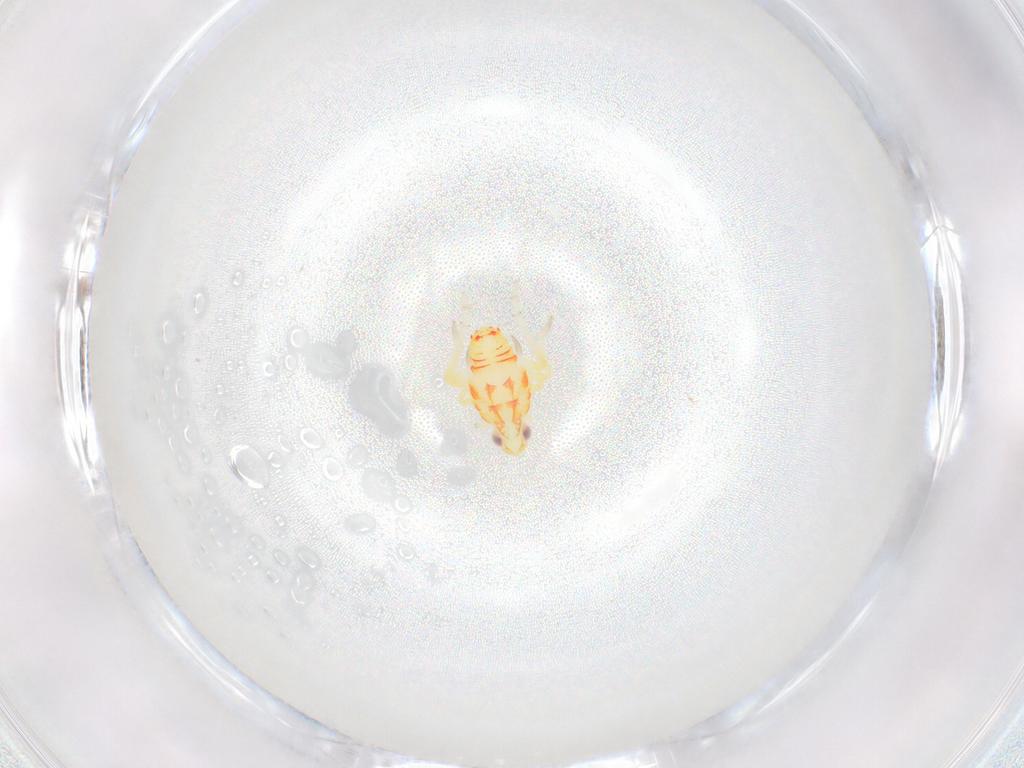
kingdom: Animalia
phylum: Arthropoda
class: Insecta
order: Hemiptera
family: Tropiduchidae
